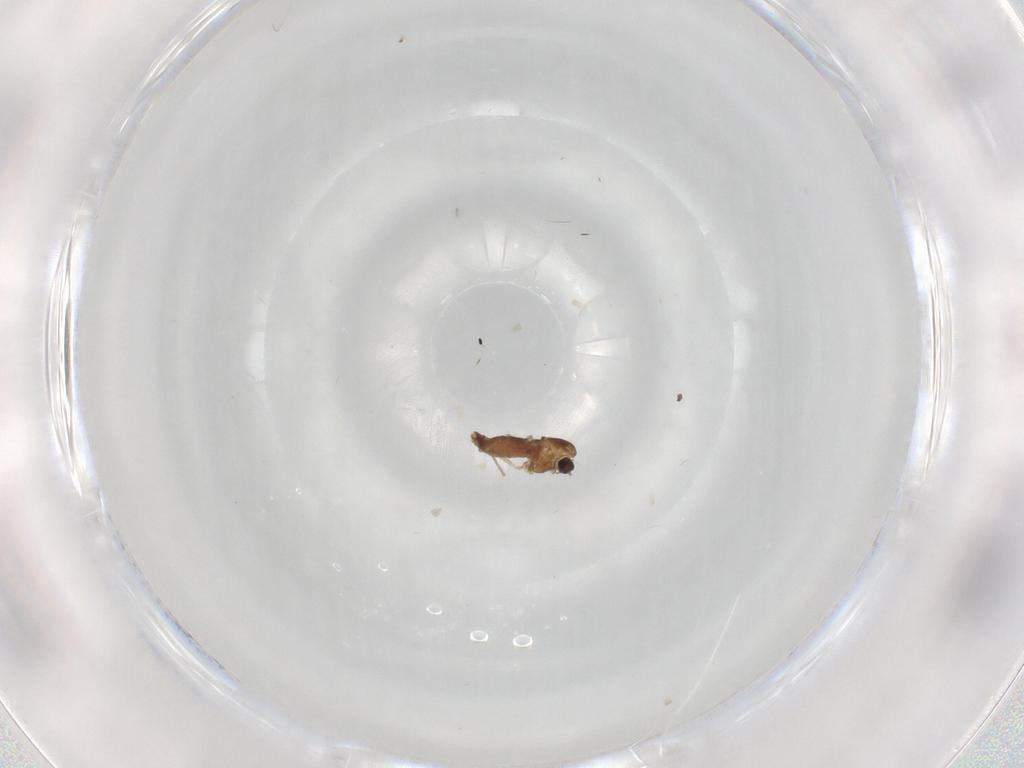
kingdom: Animalia
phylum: Arthropoda
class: Insecta
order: Diptera
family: Chironomidae
